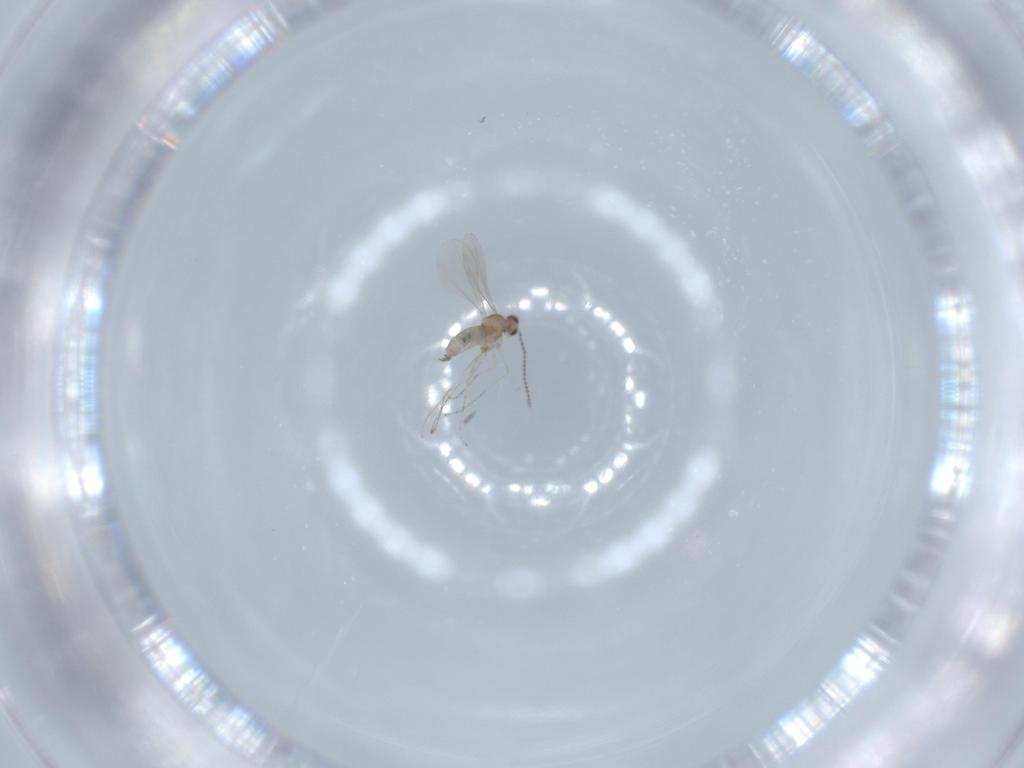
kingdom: Animalia
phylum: Arthropoda
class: Insecta
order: Diptera
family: Cecidomyiidae
